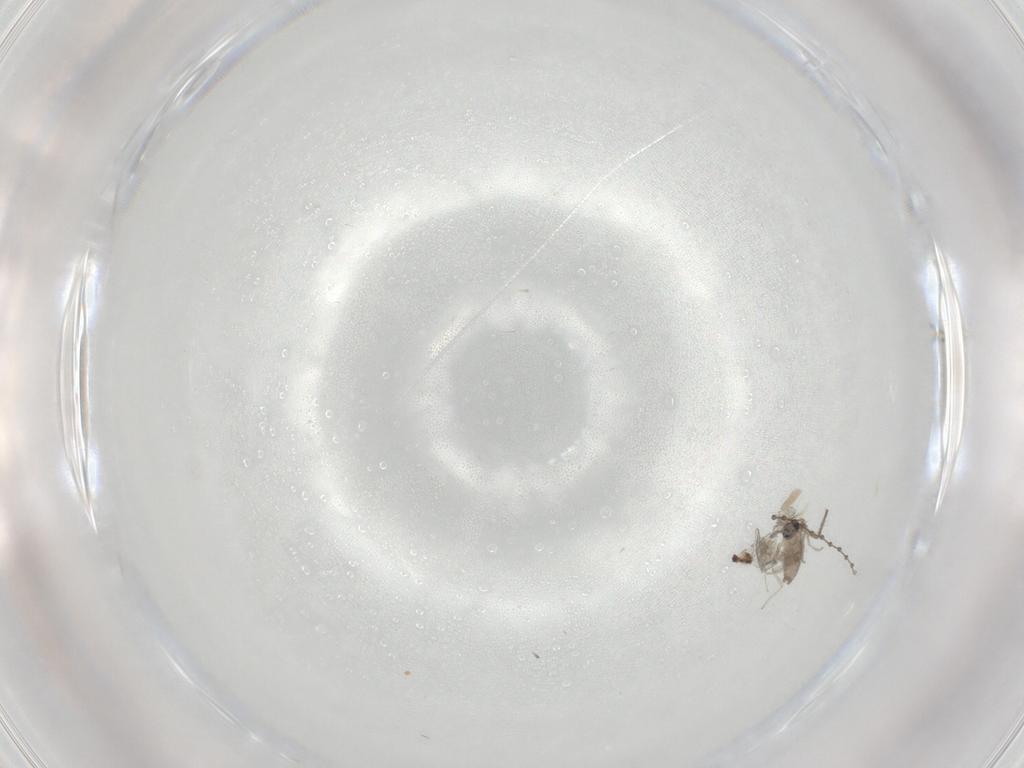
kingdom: Animalia
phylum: Arthropoda
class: Insecta
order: Diptera
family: Cecidomyiidae
